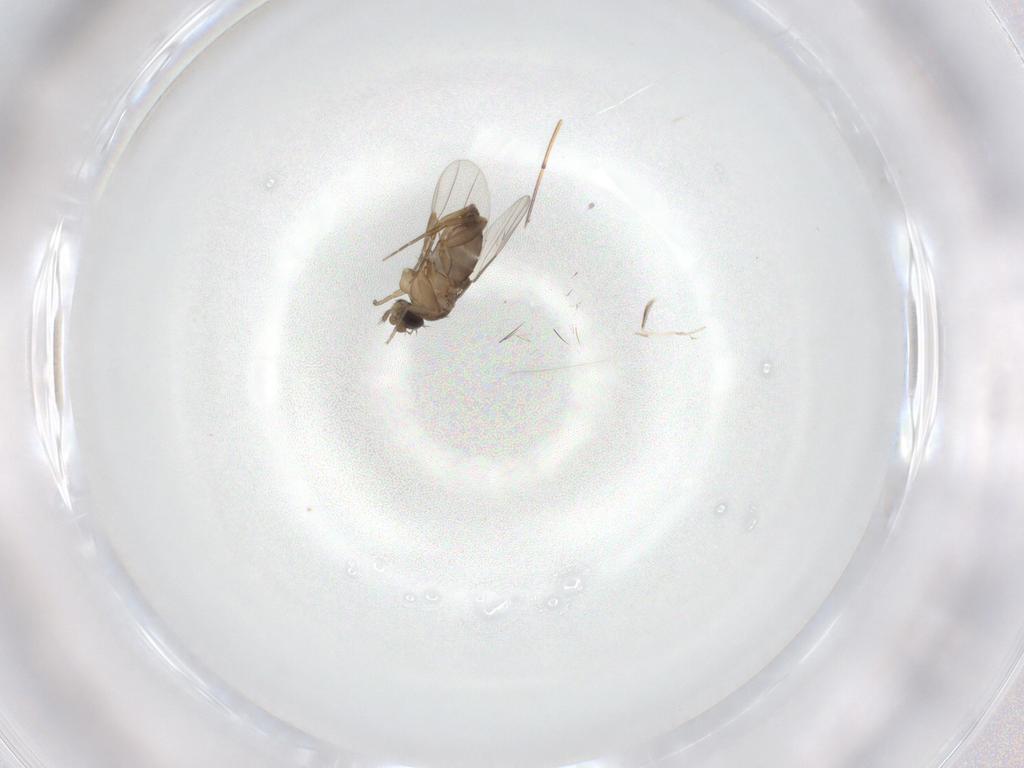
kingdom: Animalia
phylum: Arthropoda
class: Insecta
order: Diptera
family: Phoridae
